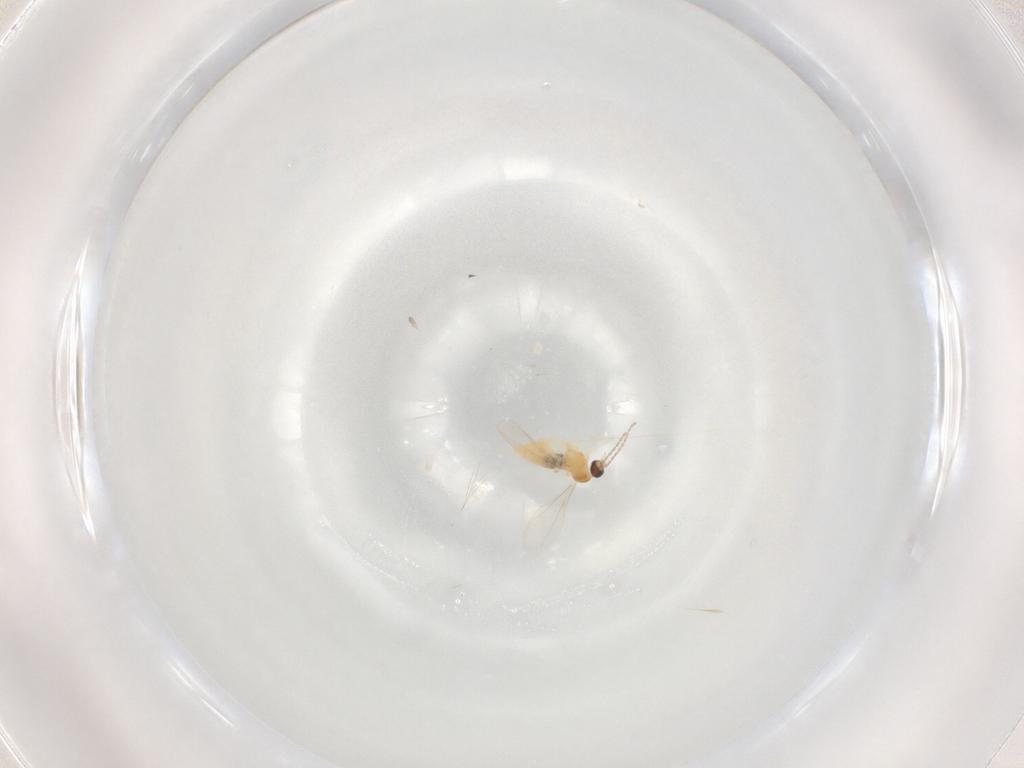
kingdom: Animalia
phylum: Arthropoda
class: Insecta
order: Diptera
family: Cecidomyiidae
